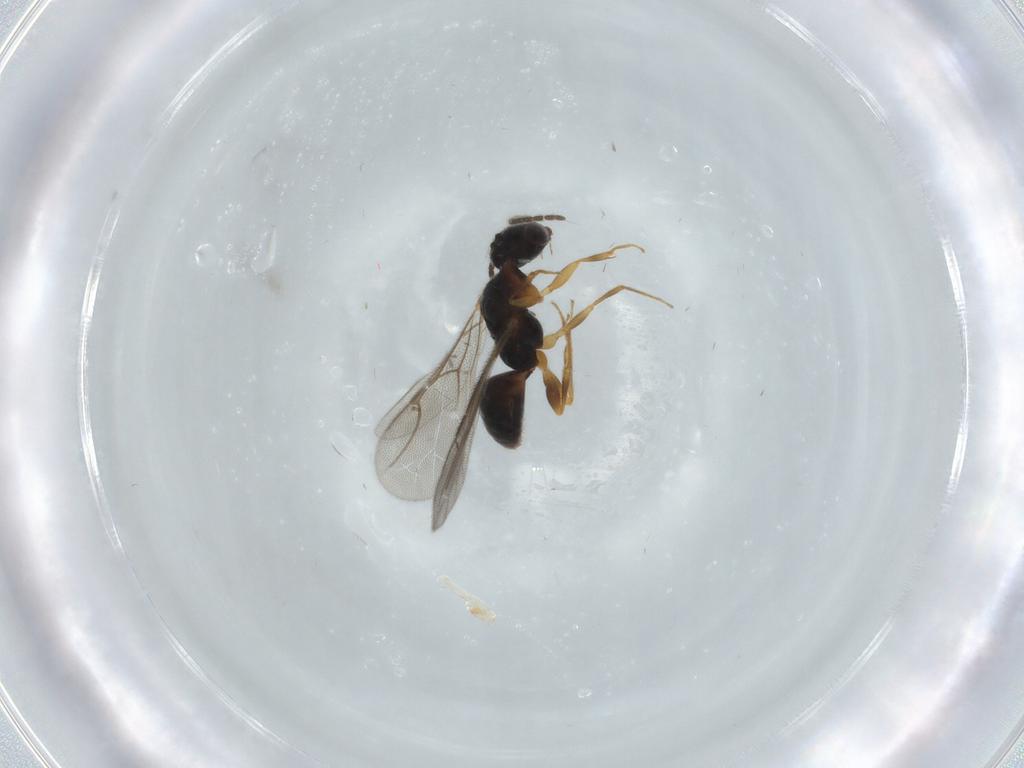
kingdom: Animalia
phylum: Arthropoda
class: Insecta
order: Hymenoptera
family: Bethylidae
